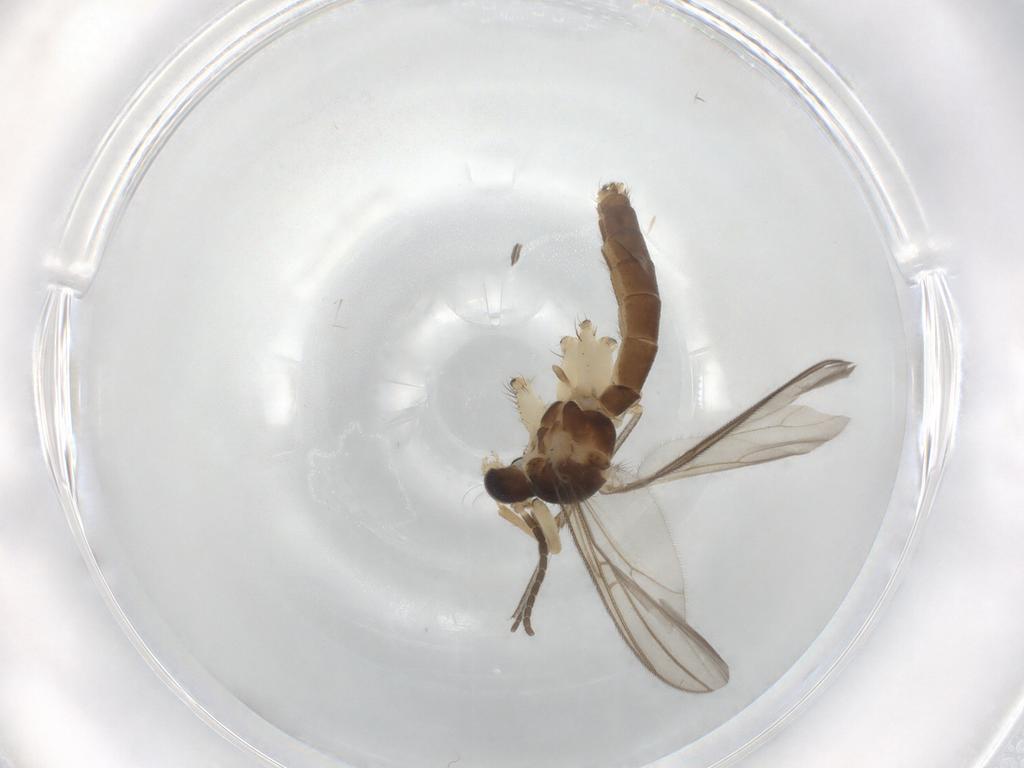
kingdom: Animalia
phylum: Arthropoda
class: Insecta
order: Diptera
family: Mycetophilidae
